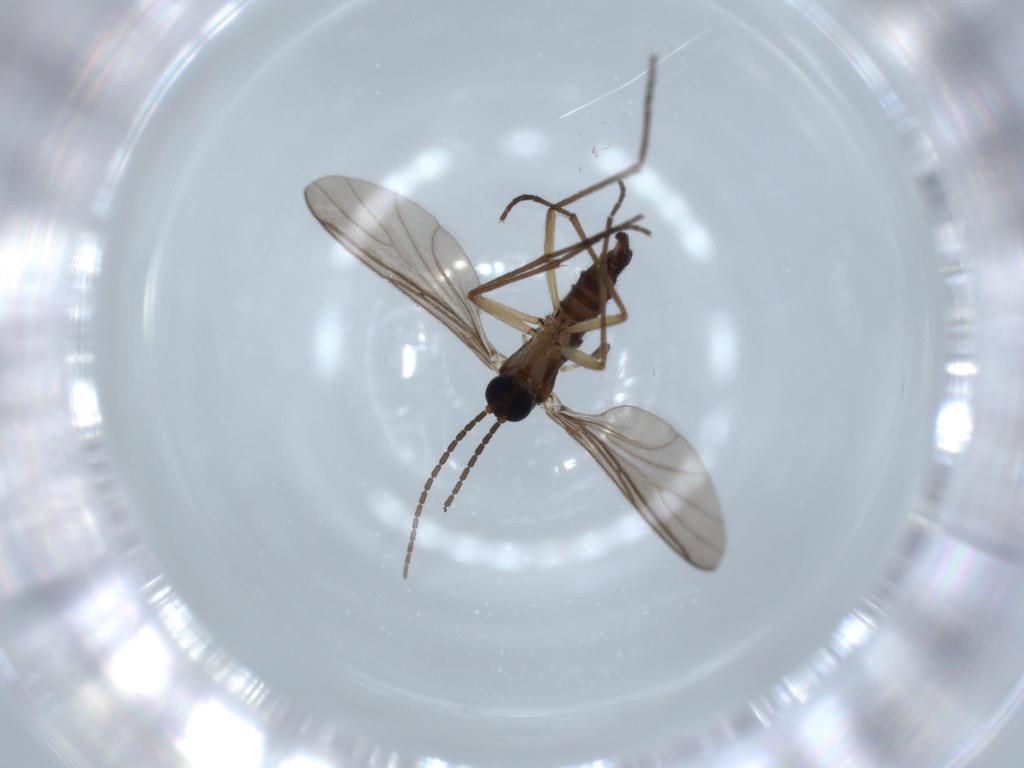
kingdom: Animalia
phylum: Arthropoda
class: Insecta
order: Diptera
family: Sciaridae
